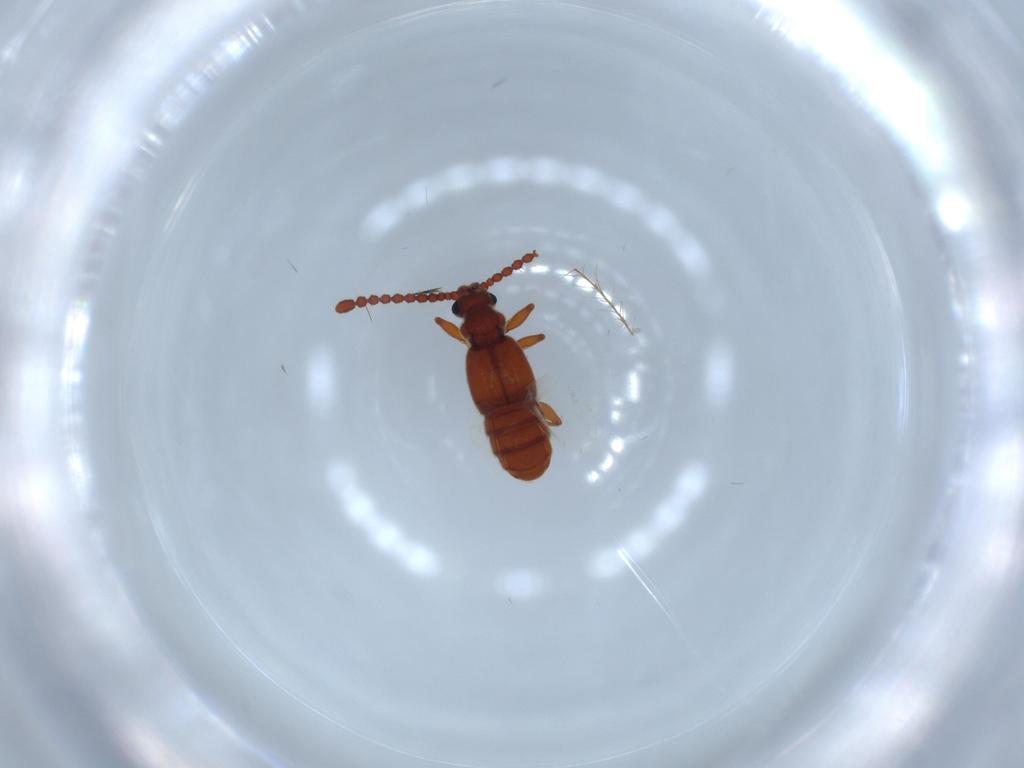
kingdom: Animalia
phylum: Arthropoda
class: Insecta
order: Coleoptera
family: Staphylinidae
